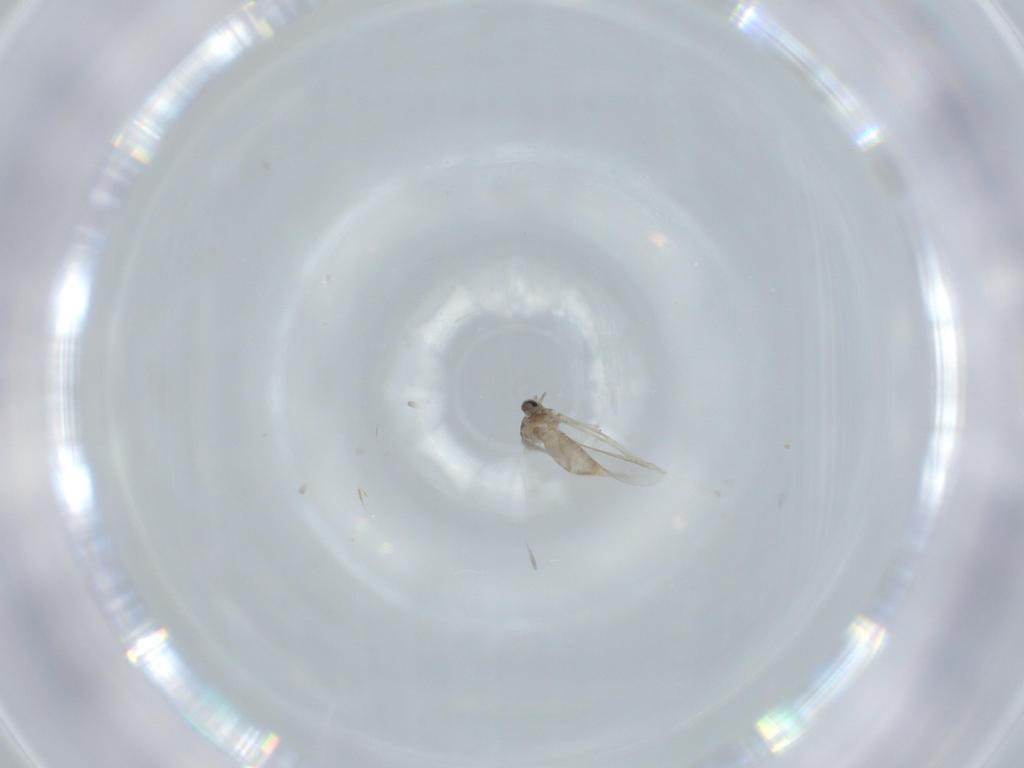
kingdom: Animalia
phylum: Arthropoda
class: Insecta
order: Diptera
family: Cecidomyiidae
